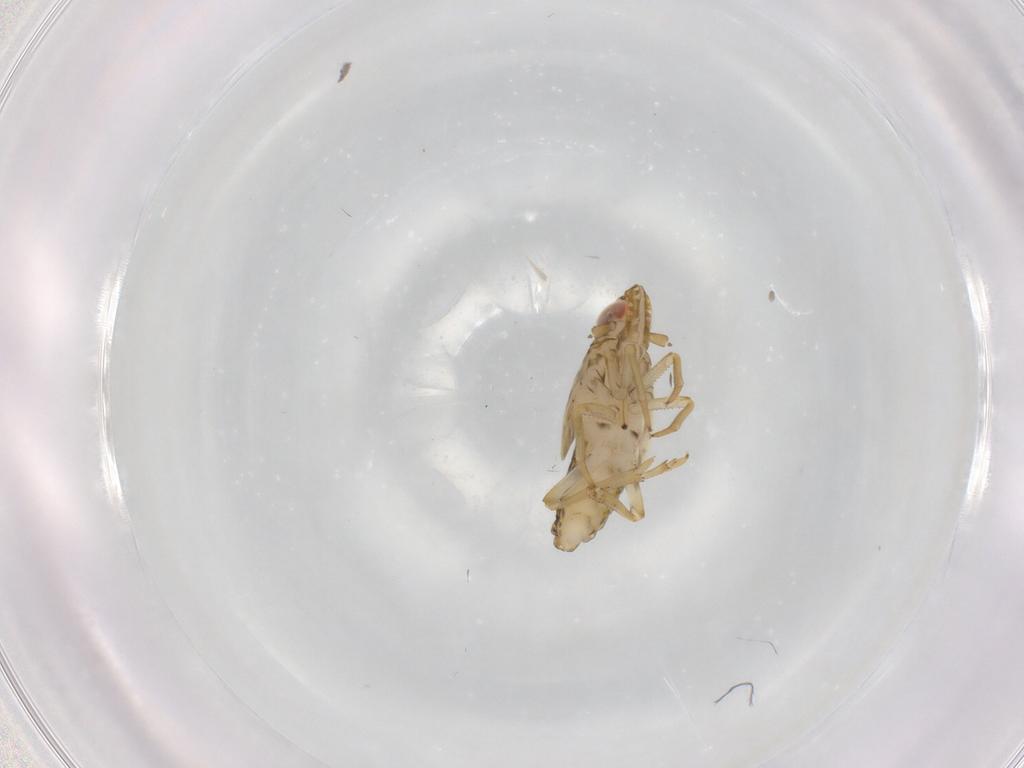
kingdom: Animalia
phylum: Arthropoda
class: Insecta
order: Hemiptera
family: Delphacidae
